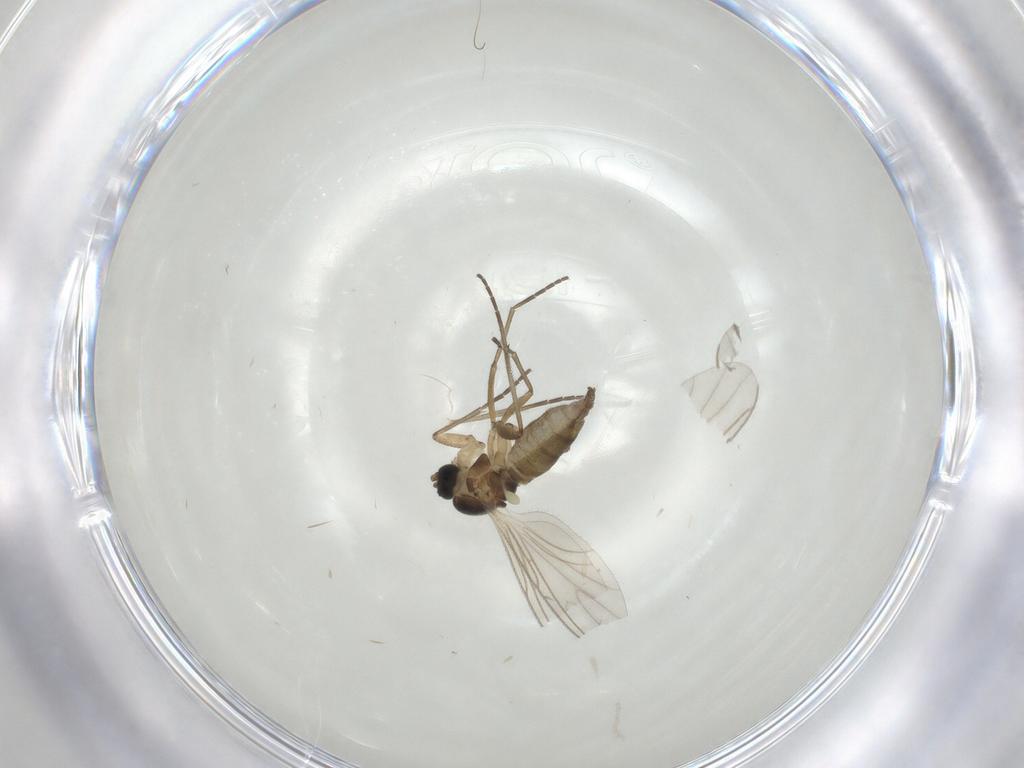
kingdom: Animalia
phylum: Arthropoda
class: Insecta
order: Diptera
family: Cecidomyiidae
